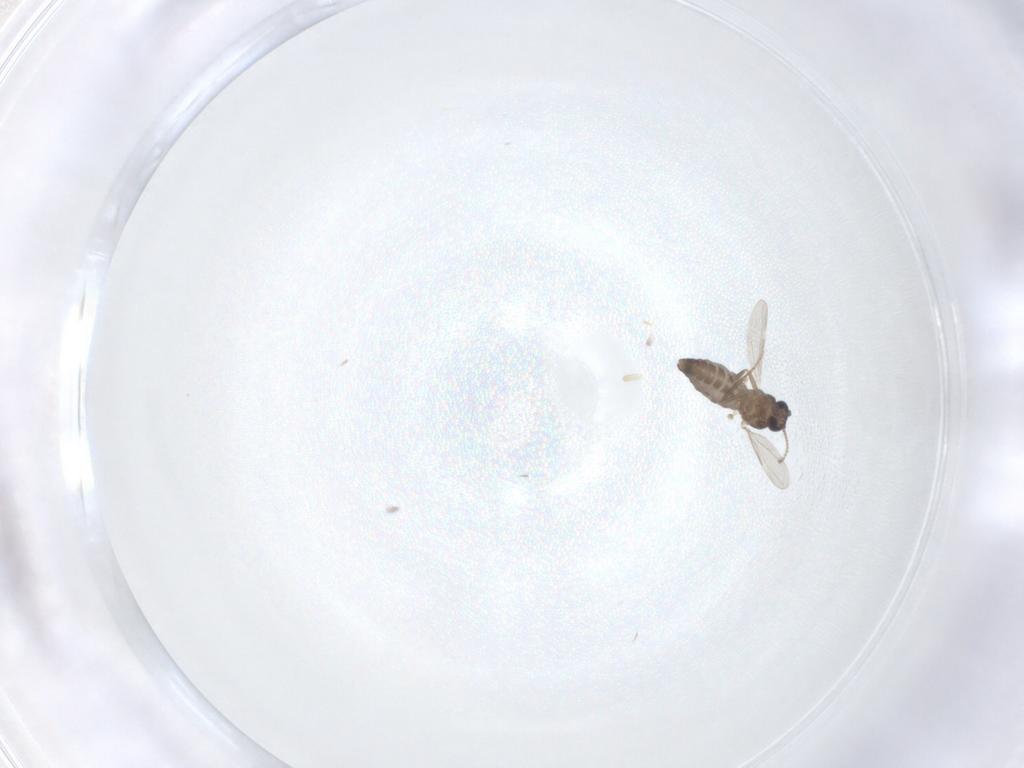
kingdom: Animalia
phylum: Arthropoda
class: Insecta
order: Diptera
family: Ceratopogonidae
